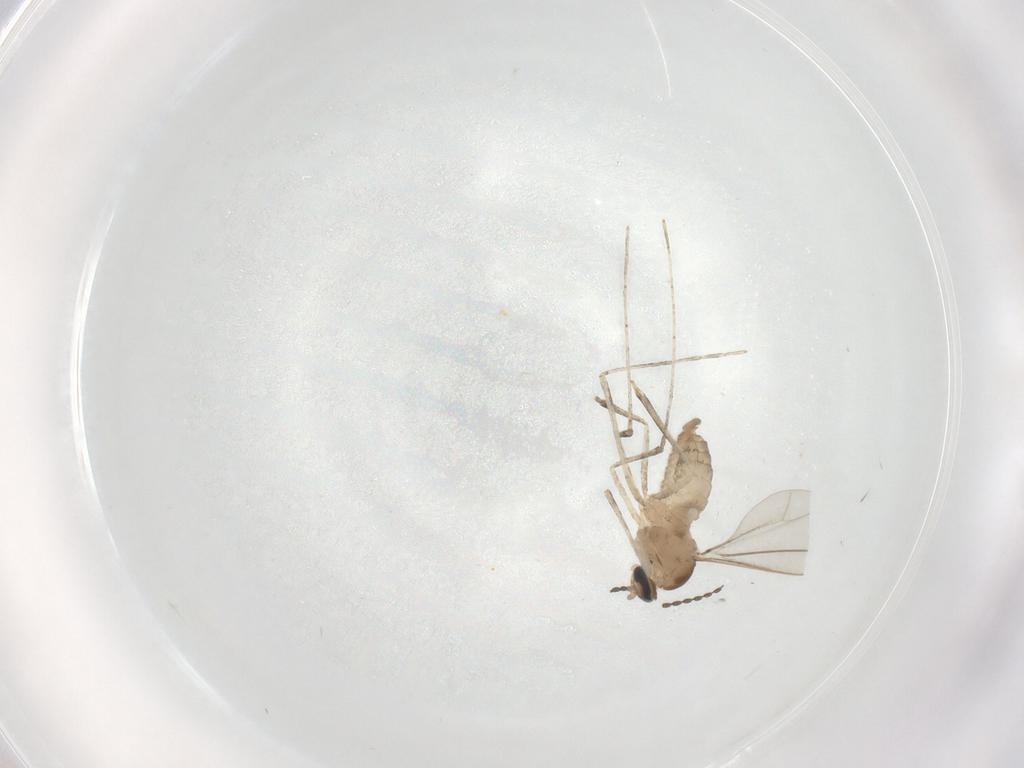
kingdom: Animalia
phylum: Arthropoda
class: Insecta
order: Diptera
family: Cecidomyiidae
